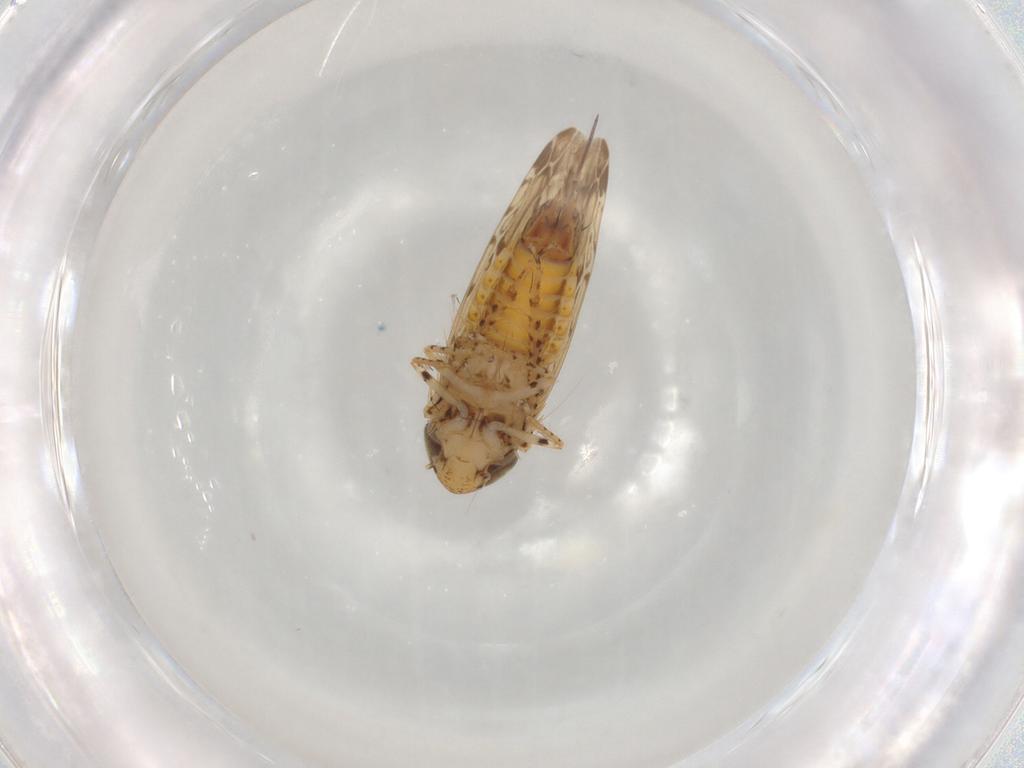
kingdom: Animalia
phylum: Arthropoda
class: Insecta
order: Hemiptera
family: Cicadellidae
